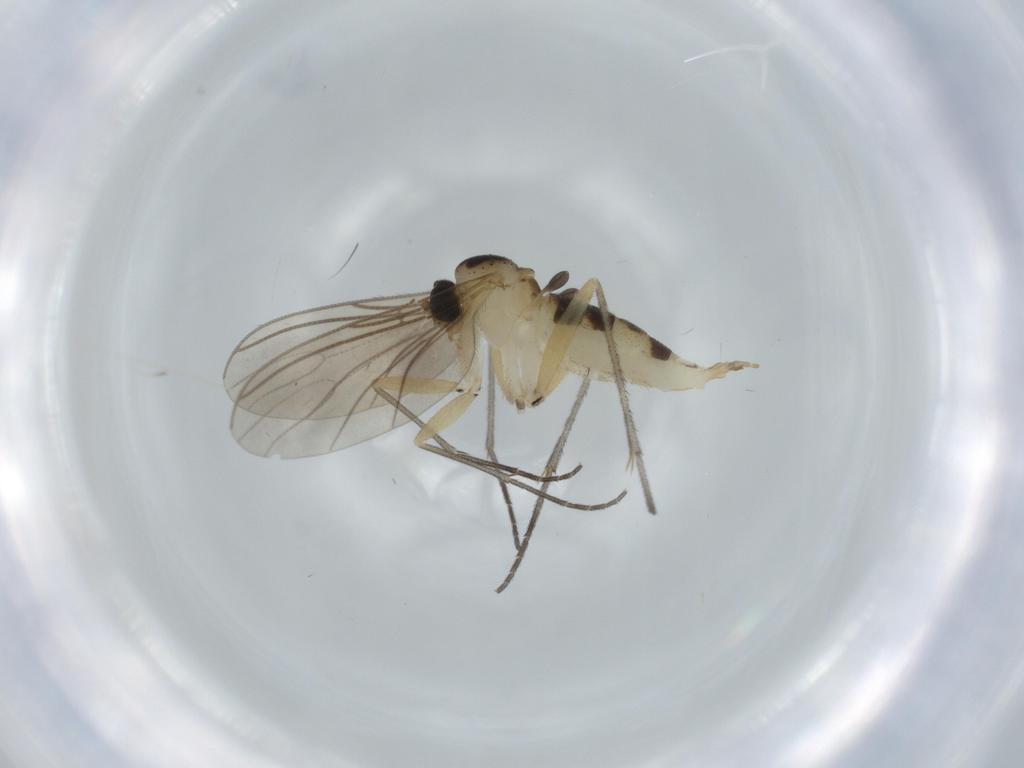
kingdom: Animalia
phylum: Arthropoda
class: Insecta
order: Diptera
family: Sciaridae
